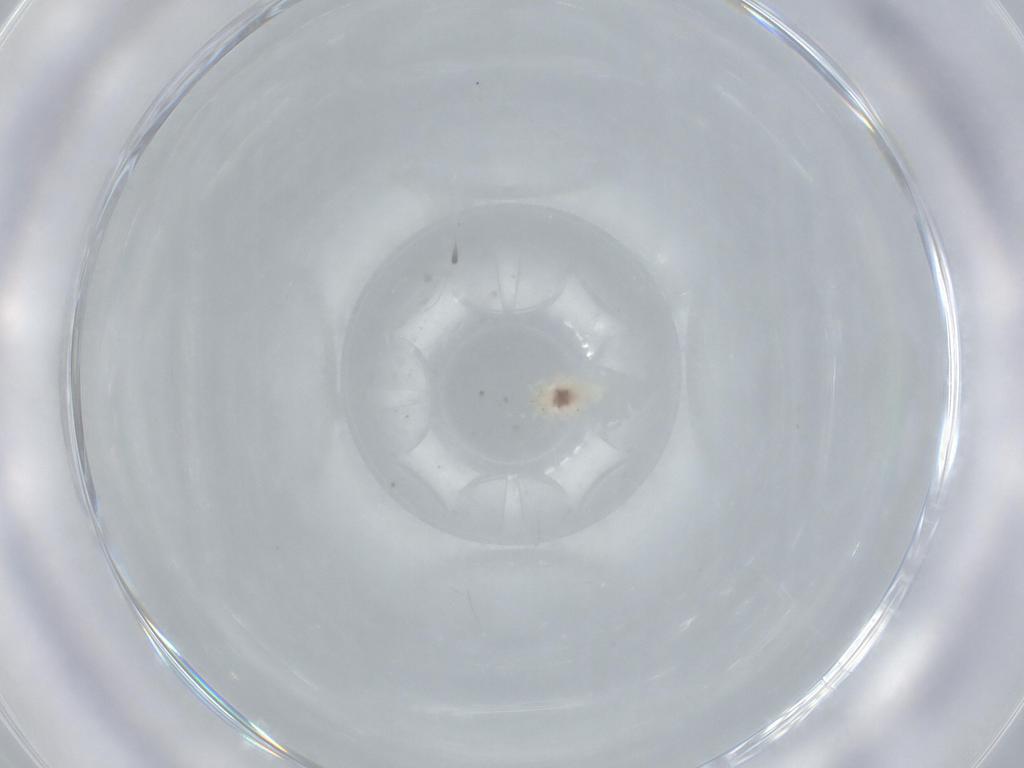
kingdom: Animalia
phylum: Arthropoda
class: Insecta
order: Neuroptera
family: Coniopterygidae
